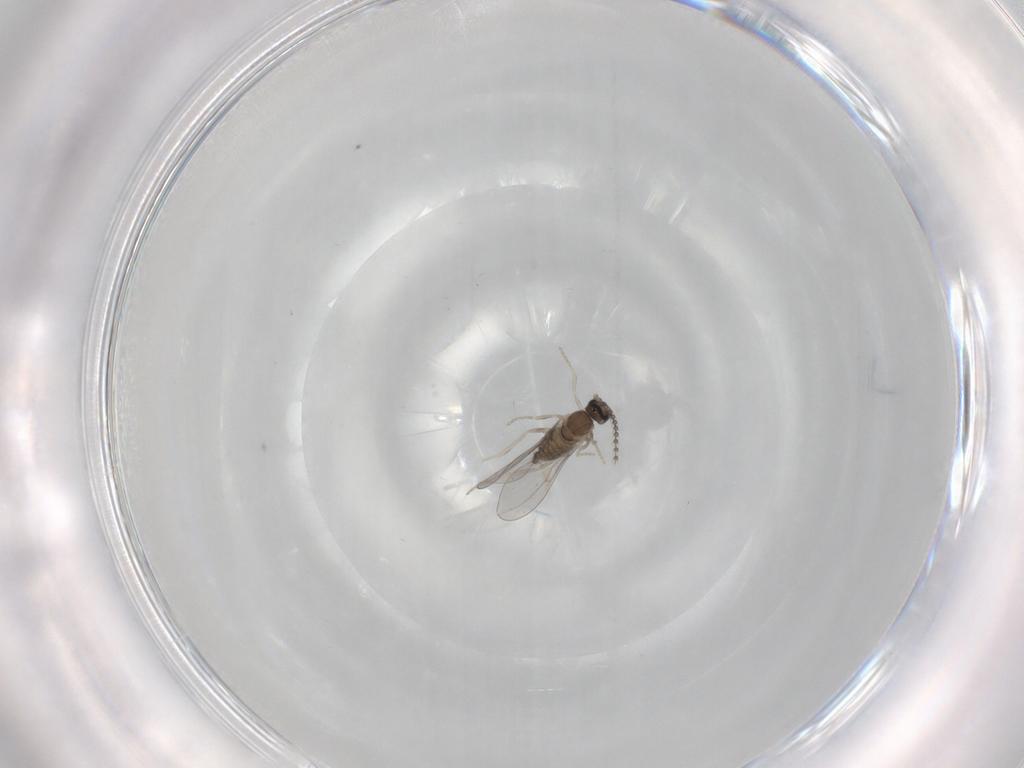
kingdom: Animalia
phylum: Arthropoda
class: Insecta
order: Diptera
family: Cecidomyiidae
